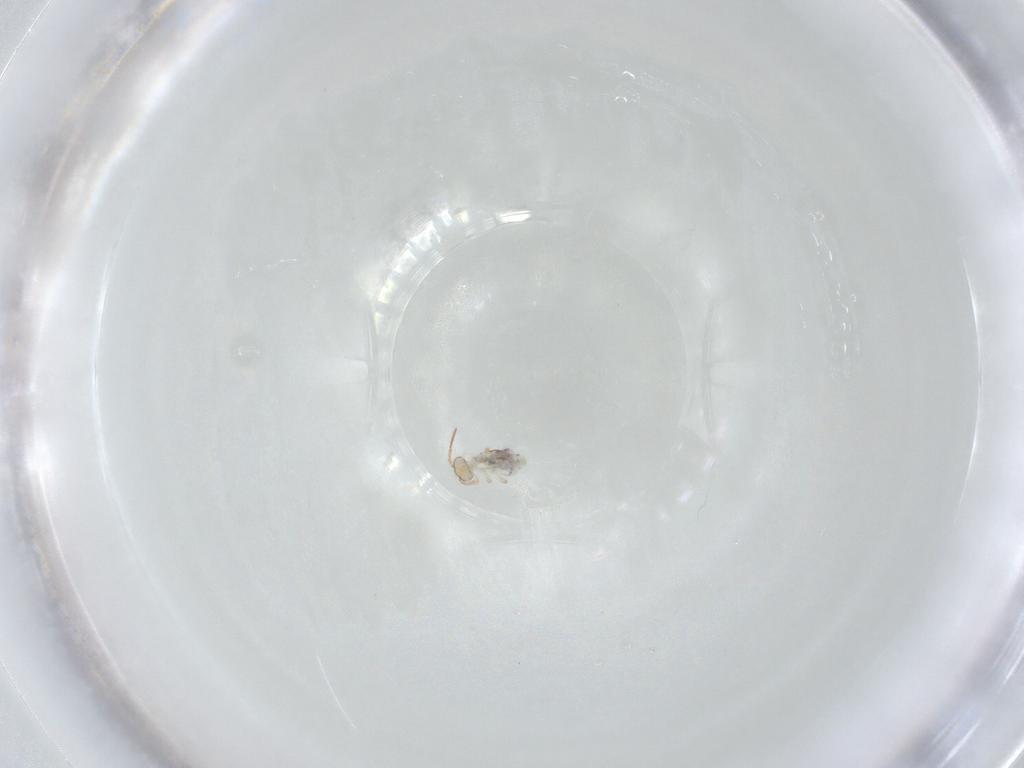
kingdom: Animalia
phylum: Arthropoda
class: Collembola
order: Symphypleona
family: Bourletiellidae
